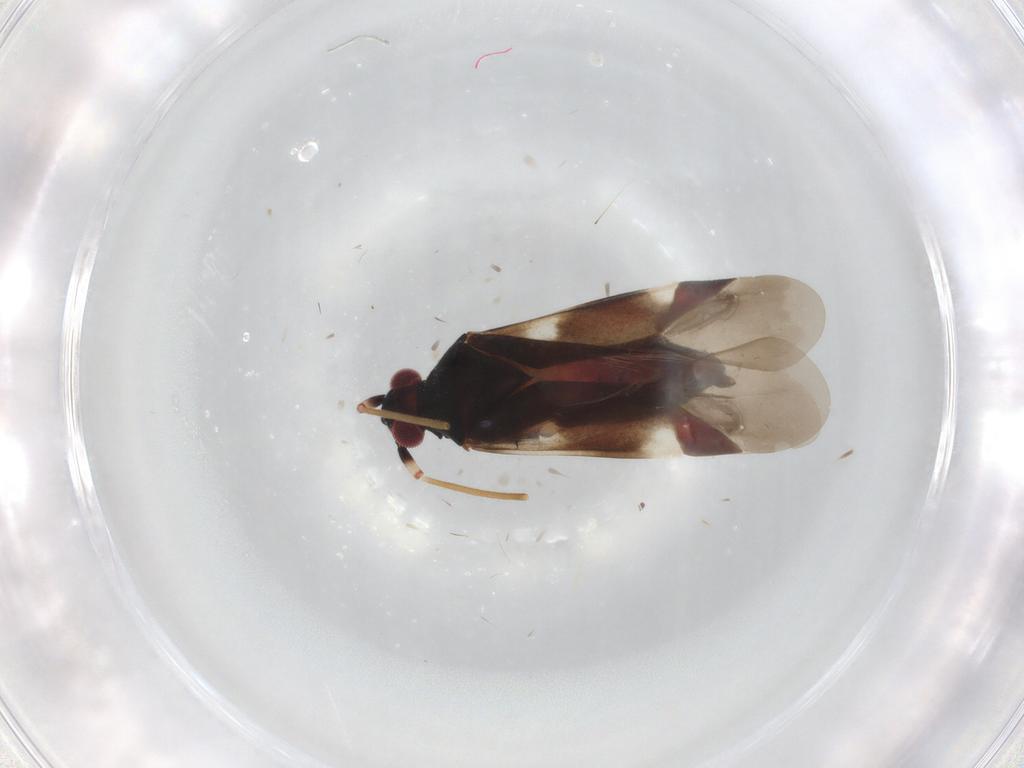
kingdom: Animalia
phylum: Arthropoda
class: Insecta
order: Hemiptera
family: Miridae
